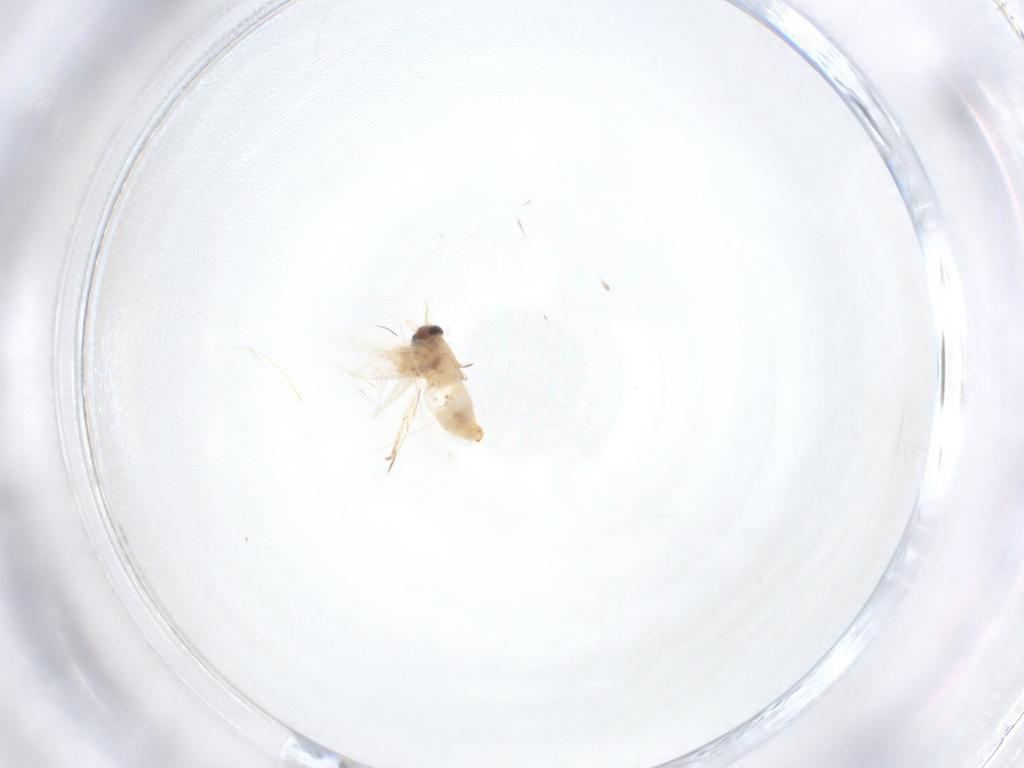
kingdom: Animalia
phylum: Arthropoda
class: Insecta
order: Lepidoptera
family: Crambidae
